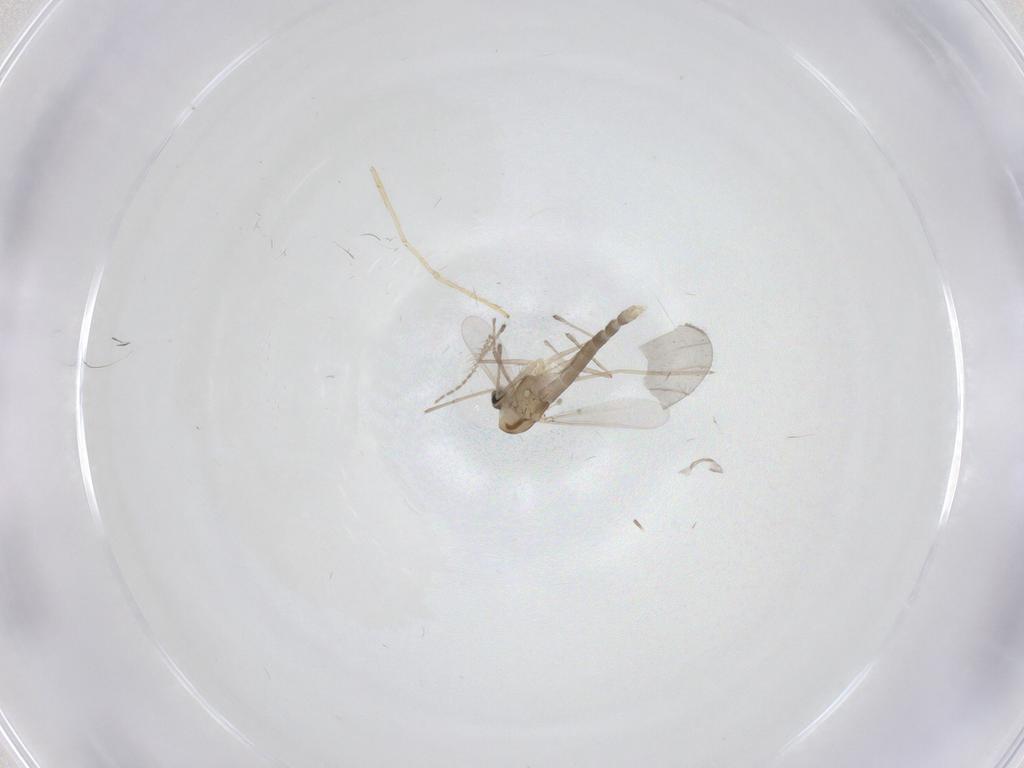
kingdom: Animalia
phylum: Arthropoda
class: Insecta
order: Diptera
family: Chironomidae
